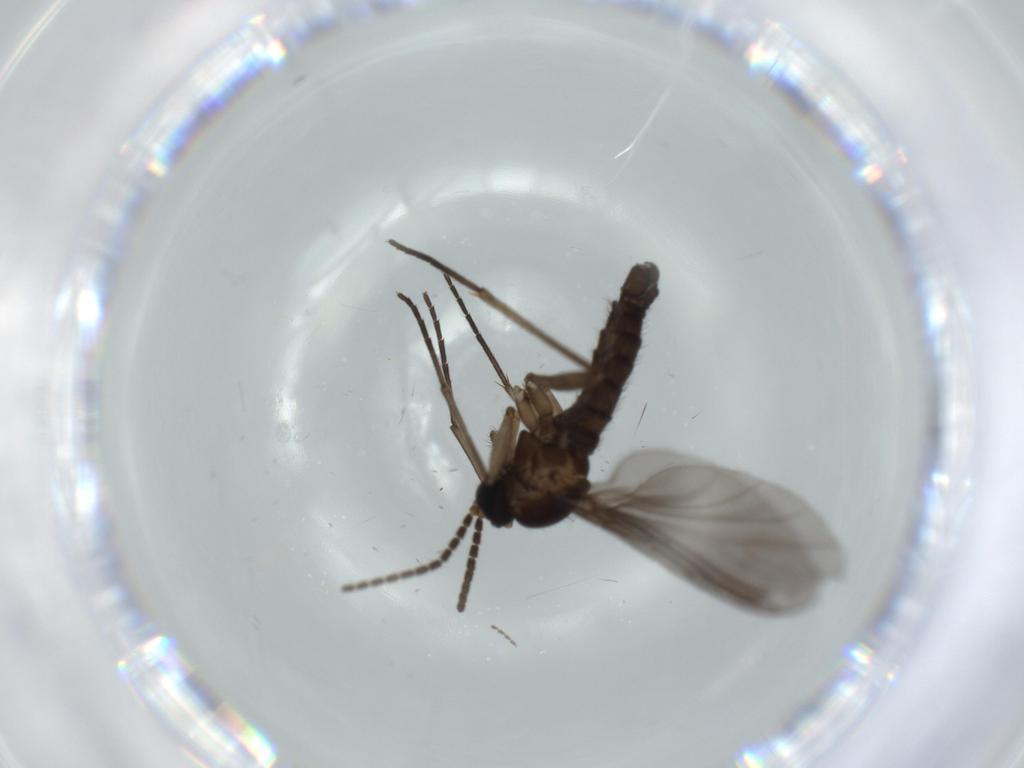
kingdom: Animalia
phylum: Arthropoda
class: Insecta
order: Diptera
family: Sciaridae
